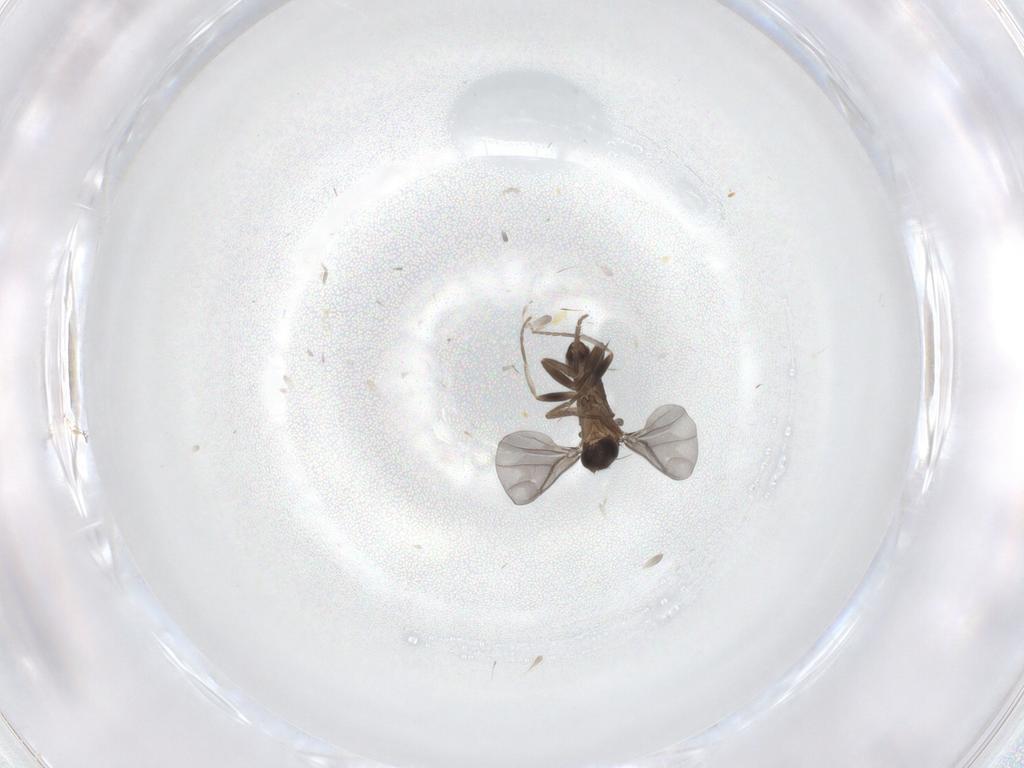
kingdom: Animalia
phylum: Arthropoda
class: Insecta
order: Diptera
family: Phoridae
